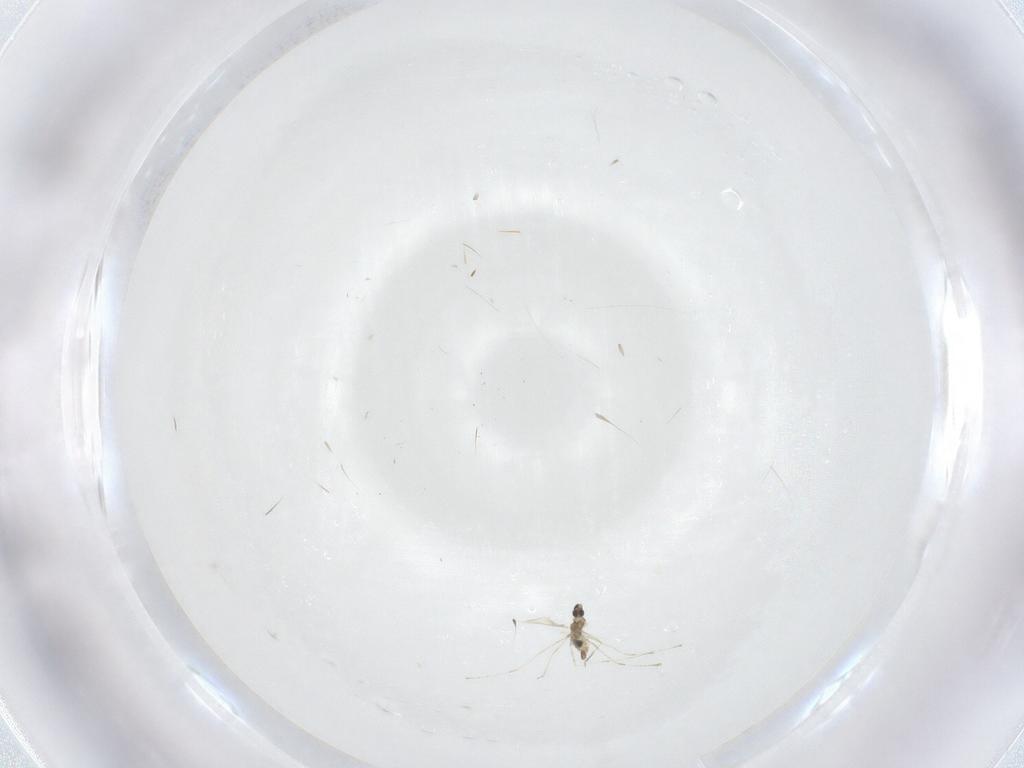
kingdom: Animalia
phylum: Arthropoda
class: Insecta
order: Diptera
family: Cecidomyiidae
